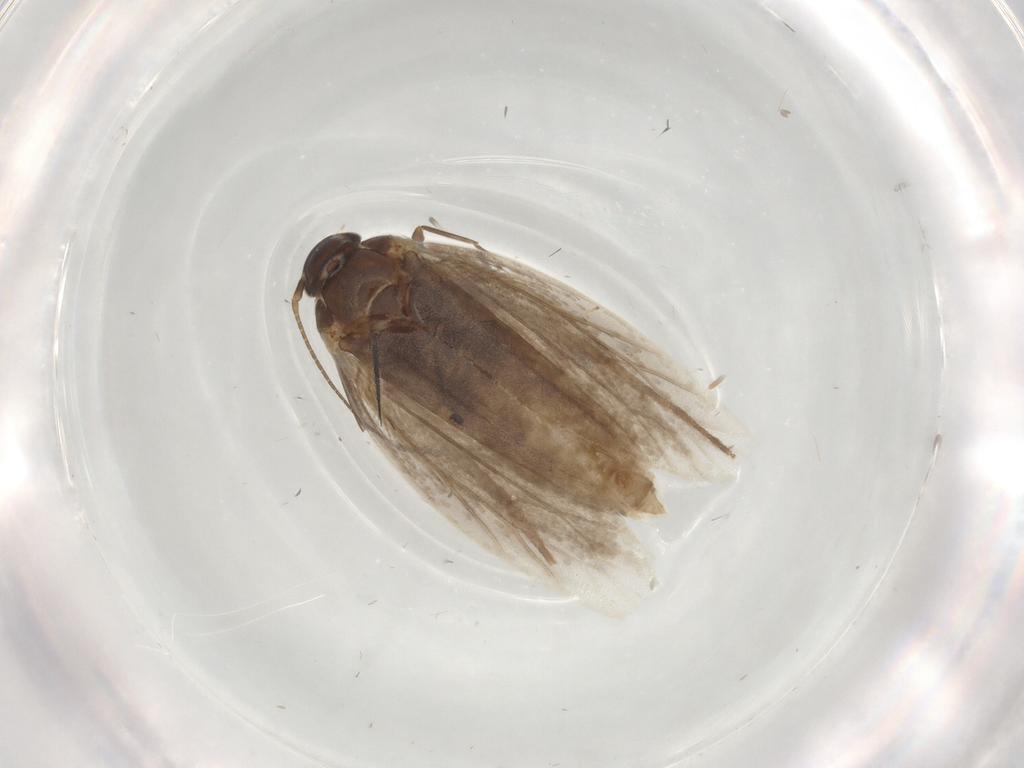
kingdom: Animalia
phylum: Arthropoda
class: Insecta
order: Lepidoptera
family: Elachistidae
